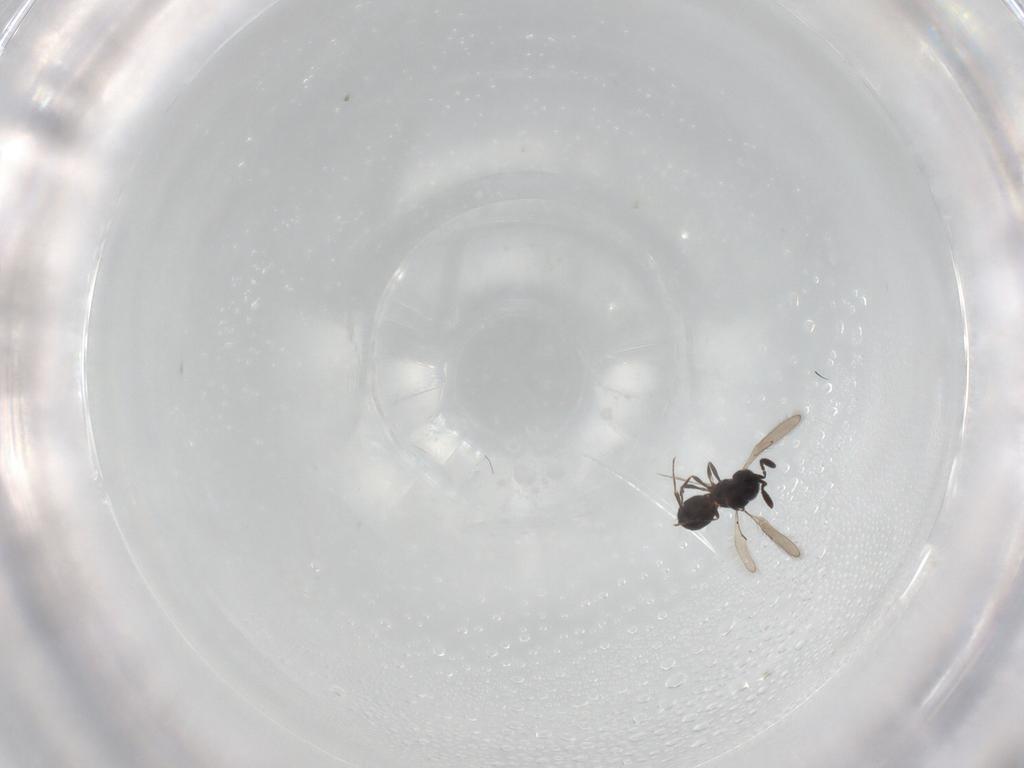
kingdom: Animalia
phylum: Arthropoda
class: Insecta
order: Hymenoptera
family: Scelionidae
